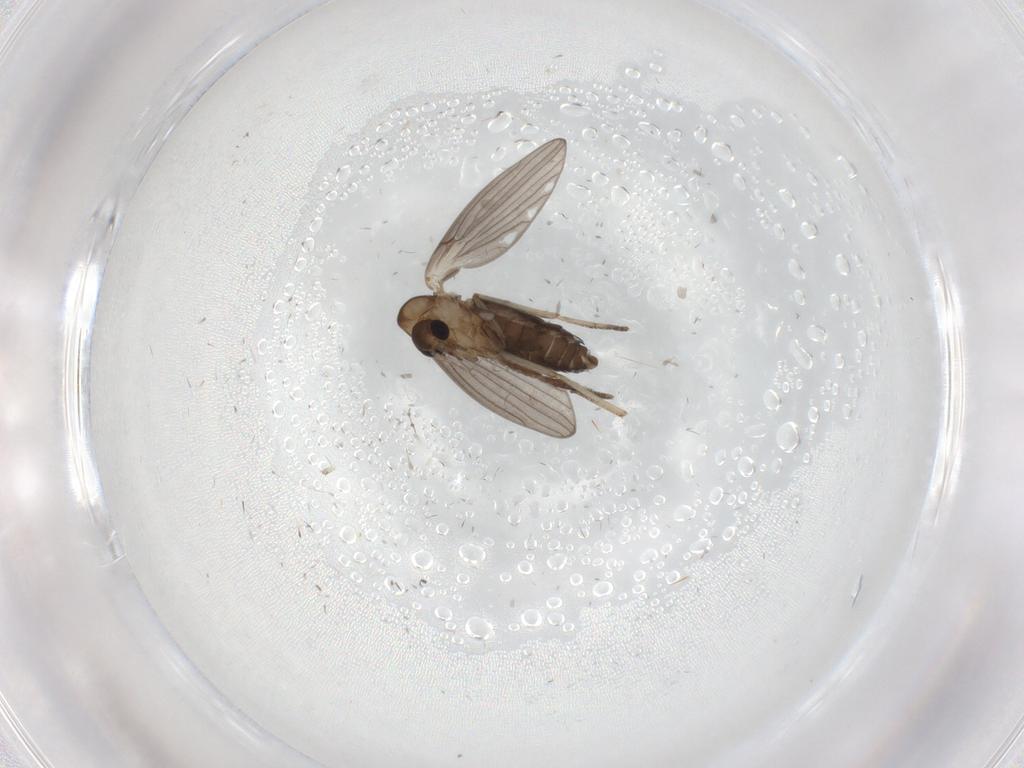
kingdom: Animalia
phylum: Arthropoda
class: Insecta
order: Diptera
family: Psychodidae
